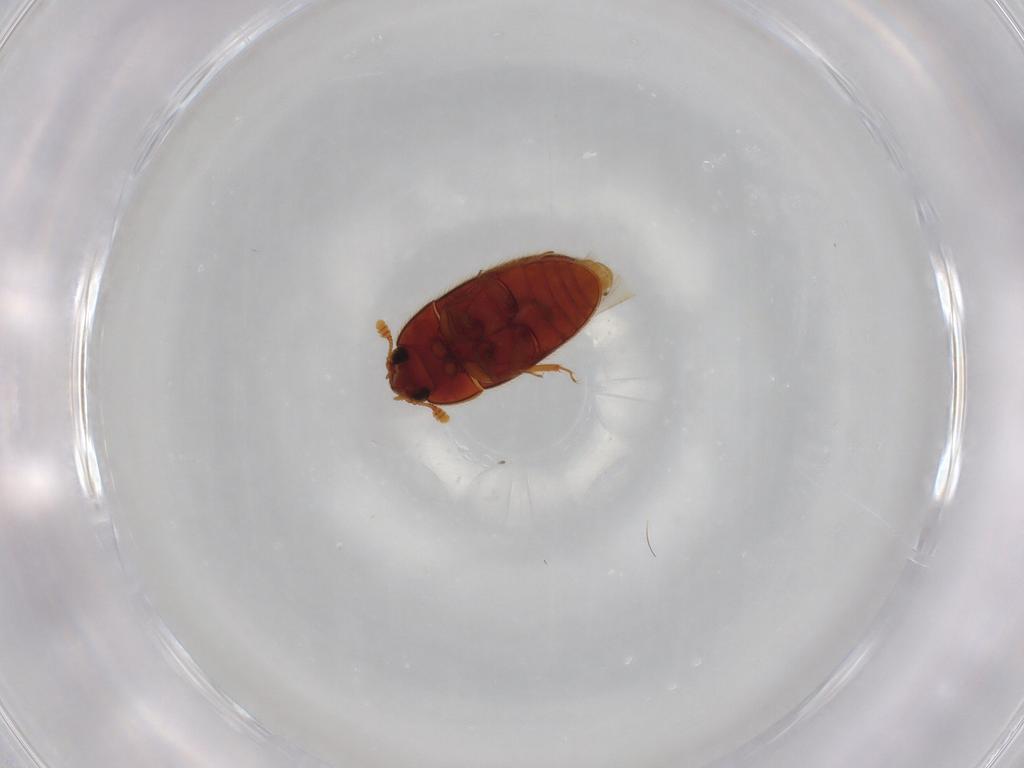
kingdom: Animalia
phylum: Arthropoda
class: Insecta
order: Coleoptera
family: Biphyllidae
